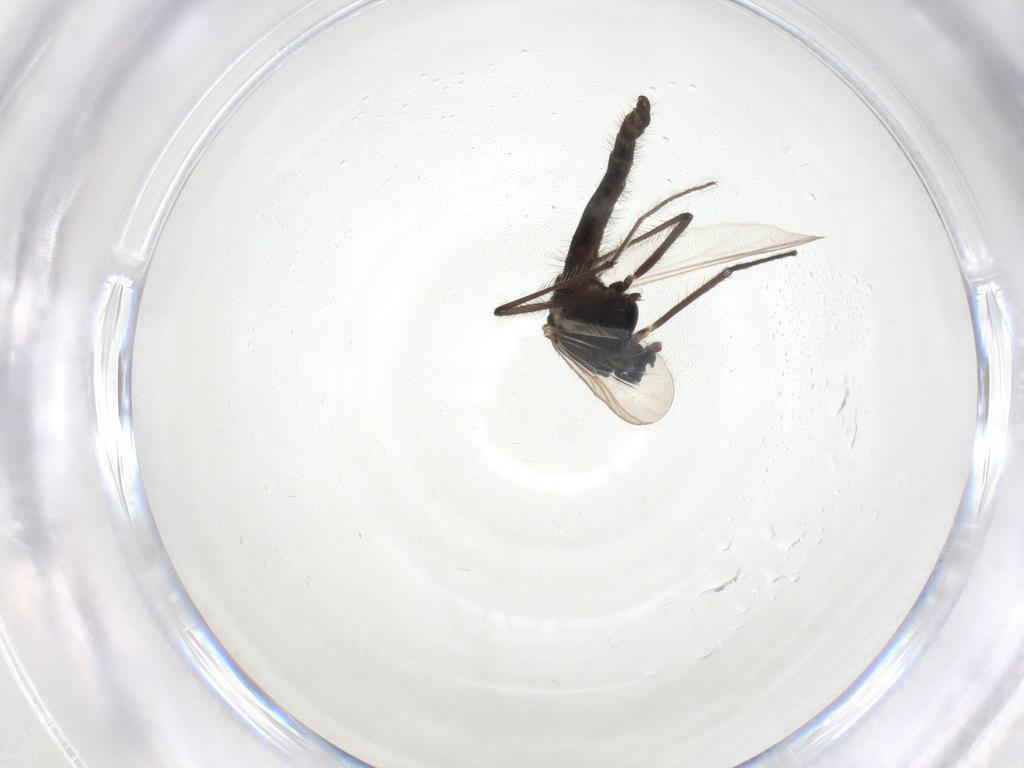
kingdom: Animalia
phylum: Arthropoda
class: Insecta
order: Diptera
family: Chironomidae
